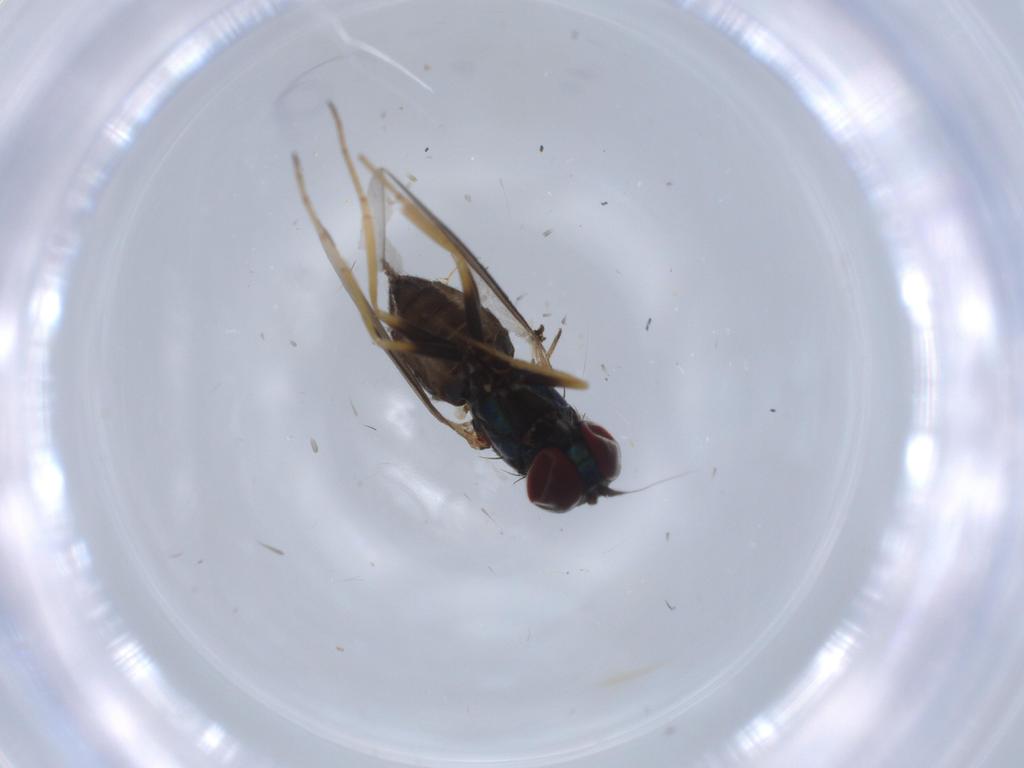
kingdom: Animalia
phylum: Arthropoda
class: Insecta
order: Diptera
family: Dolichopodidae
